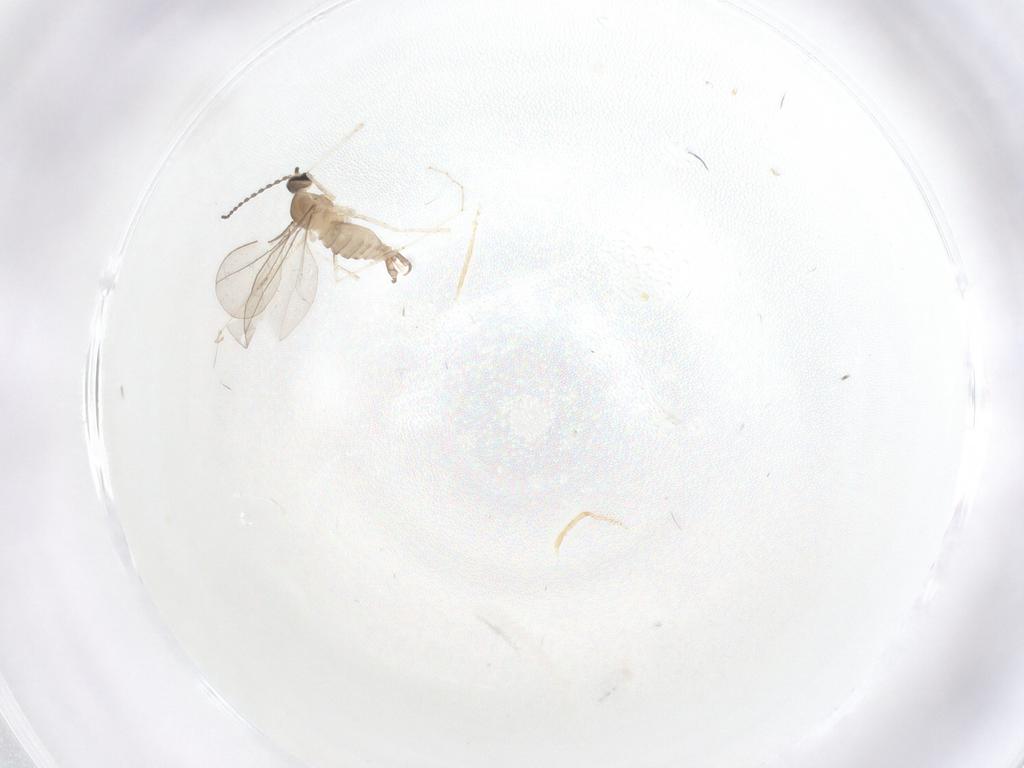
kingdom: Animalia
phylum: Arthropoda
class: Insecta
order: Diptera
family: Cecidomyiidae
